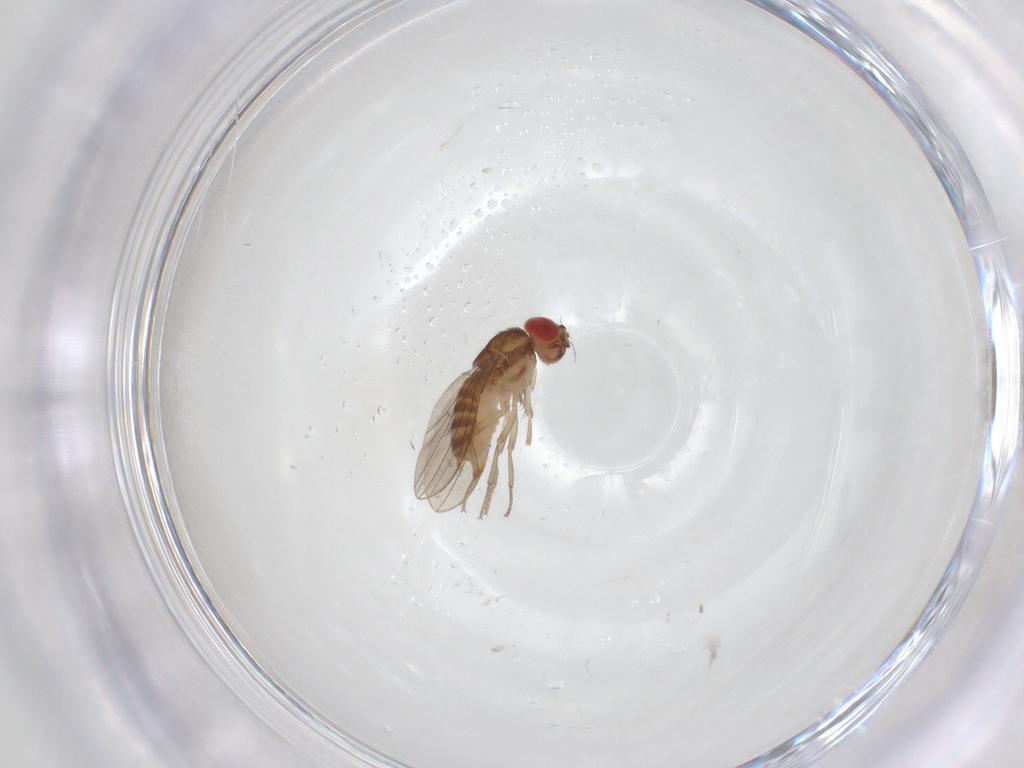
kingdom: Animalia
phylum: Arthropoda
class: Insecta
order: Diptera
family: Drosophilidae
